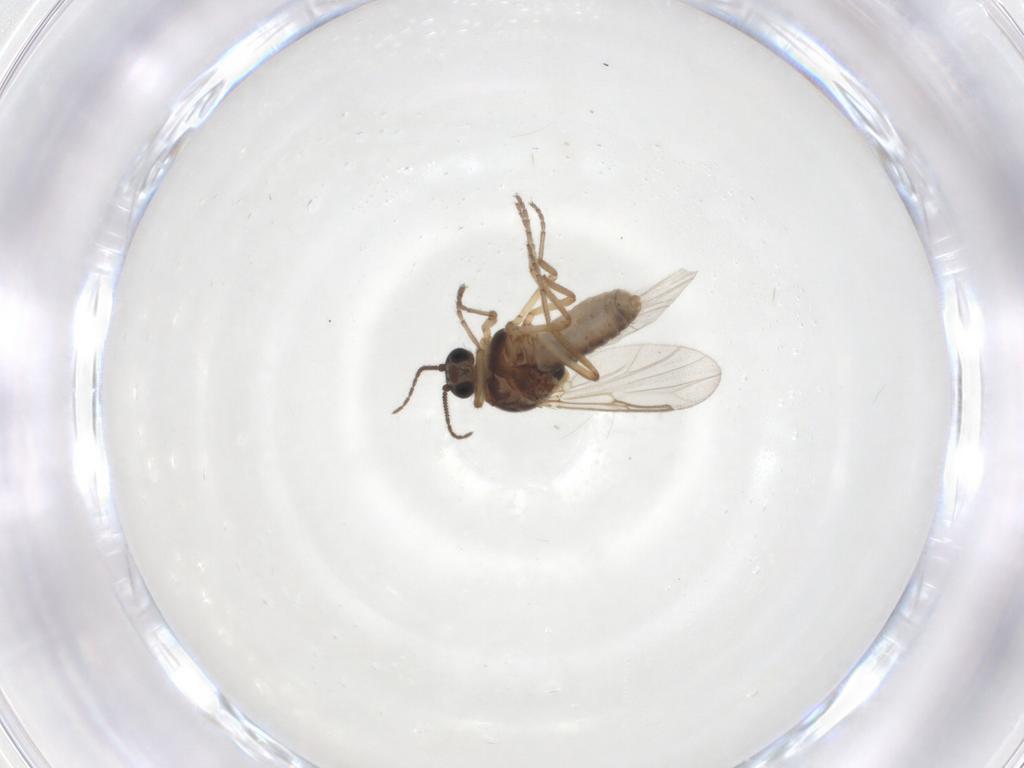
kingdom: Animalia
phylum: Arthropoda
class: Insecta
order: Diptera
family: Ceratopogonidae
